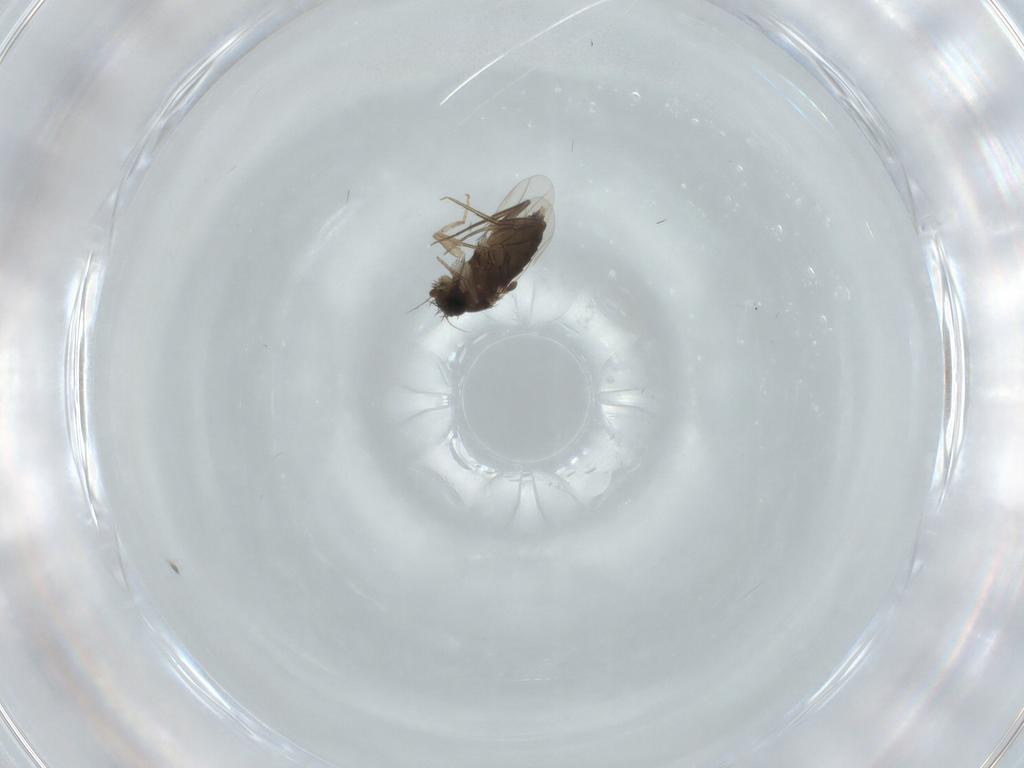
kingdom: Animalia
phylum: Arthropoda
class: Insecta
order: Diptera
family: Phoridae
